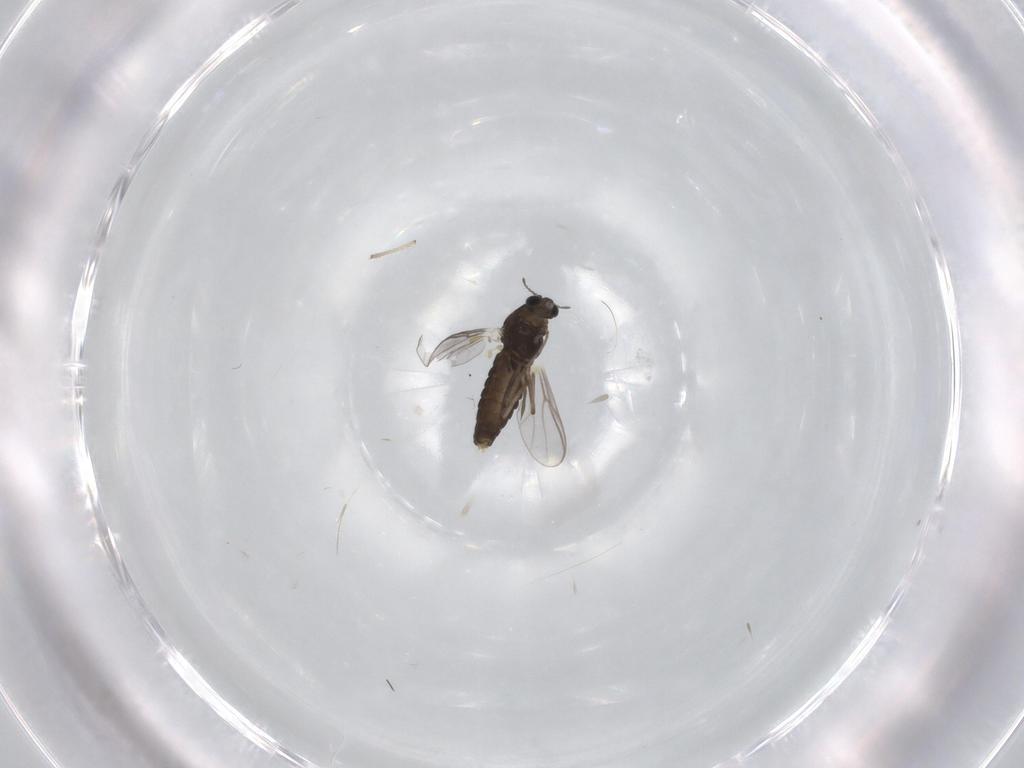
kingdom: Animalia
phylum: Arthropoda
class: Insecta
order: Diptera
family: Chironomidae
